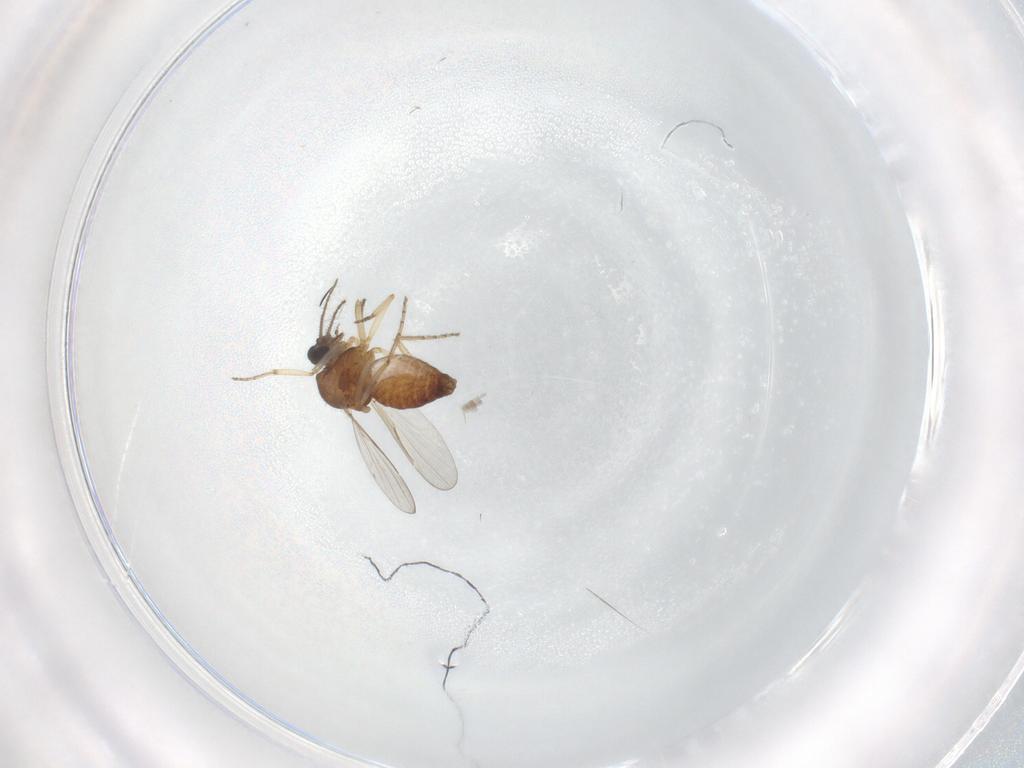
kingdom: Animalia
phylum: Arthropoda
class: Insecta
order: Diptera
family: Ceratopogonidae
